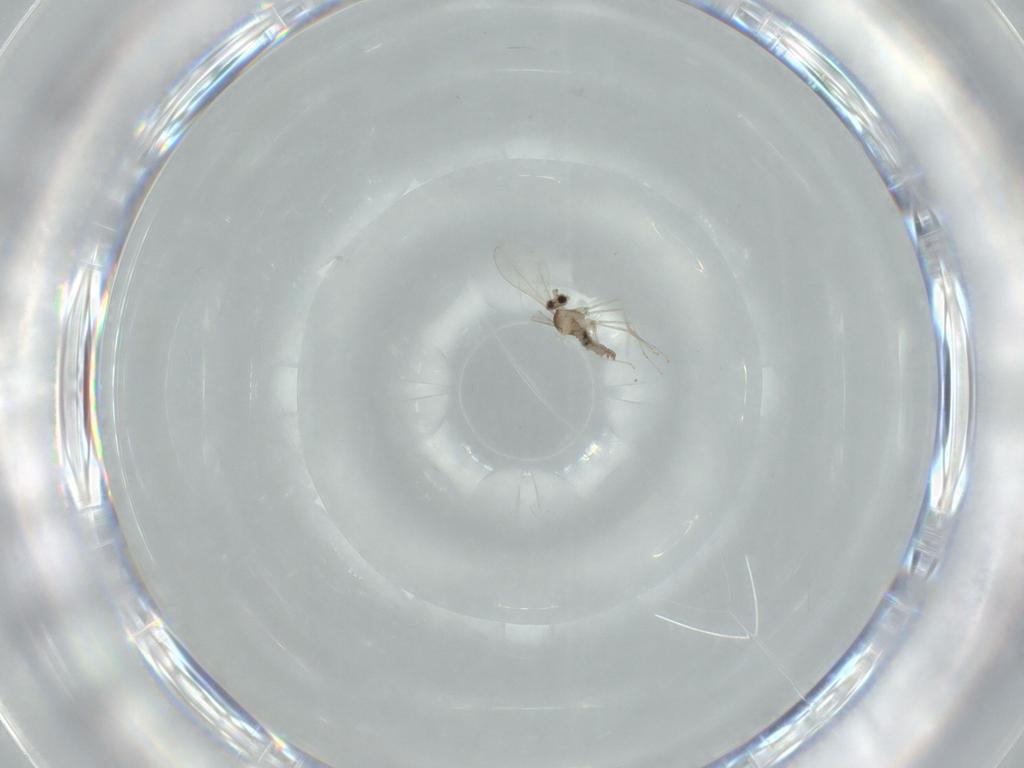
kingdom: Animalia
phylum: Arthropoda
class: Insecta
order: Diptera
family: Cecidomyiidae
